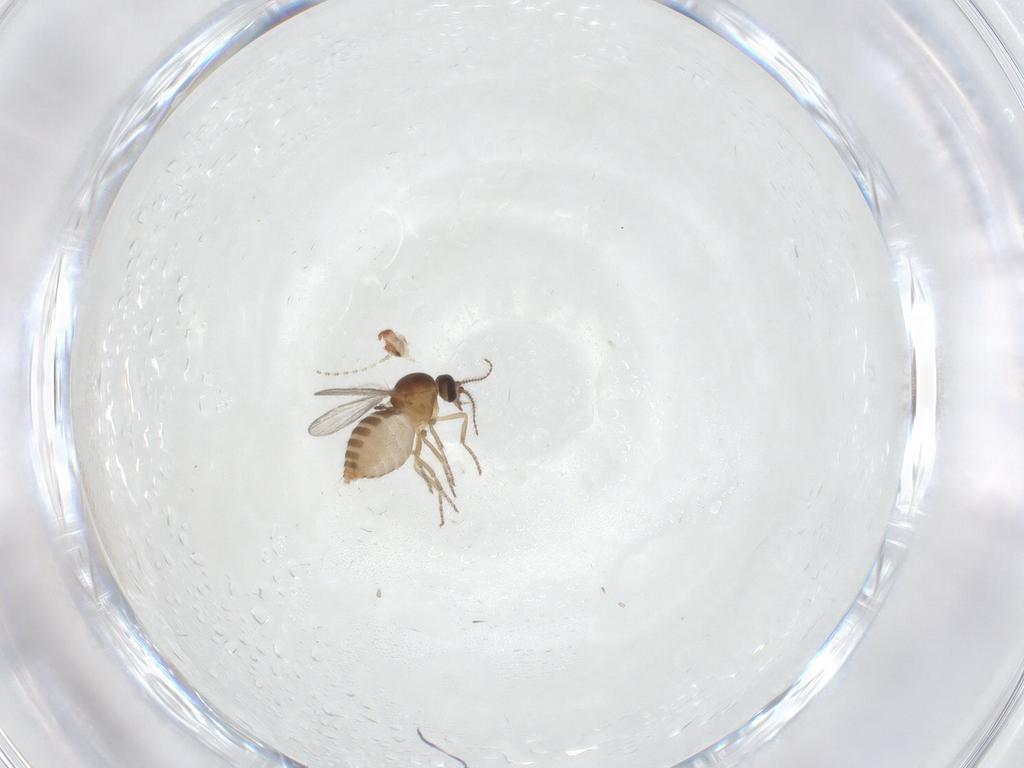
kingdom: Animalia
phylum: Arthropoda
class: Insecta
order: Diptera
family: Ceratopogonidae
